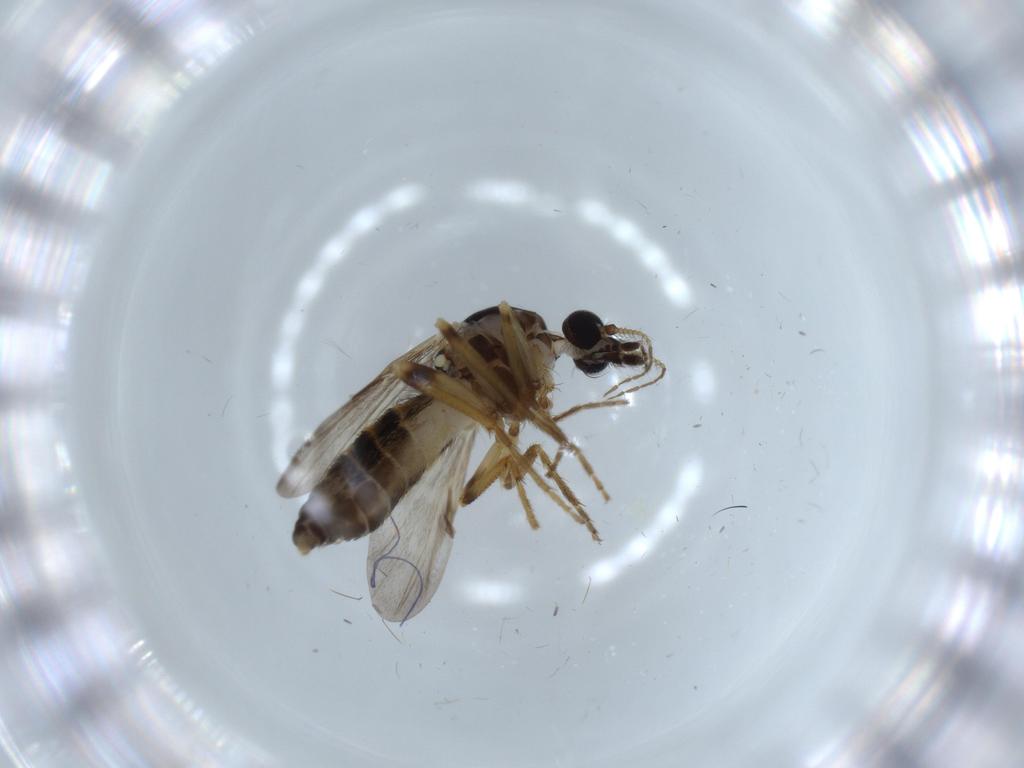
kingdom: Animalia
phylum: Arthropoda
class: Insecta
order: Diptera
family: Ceratopogonidae
